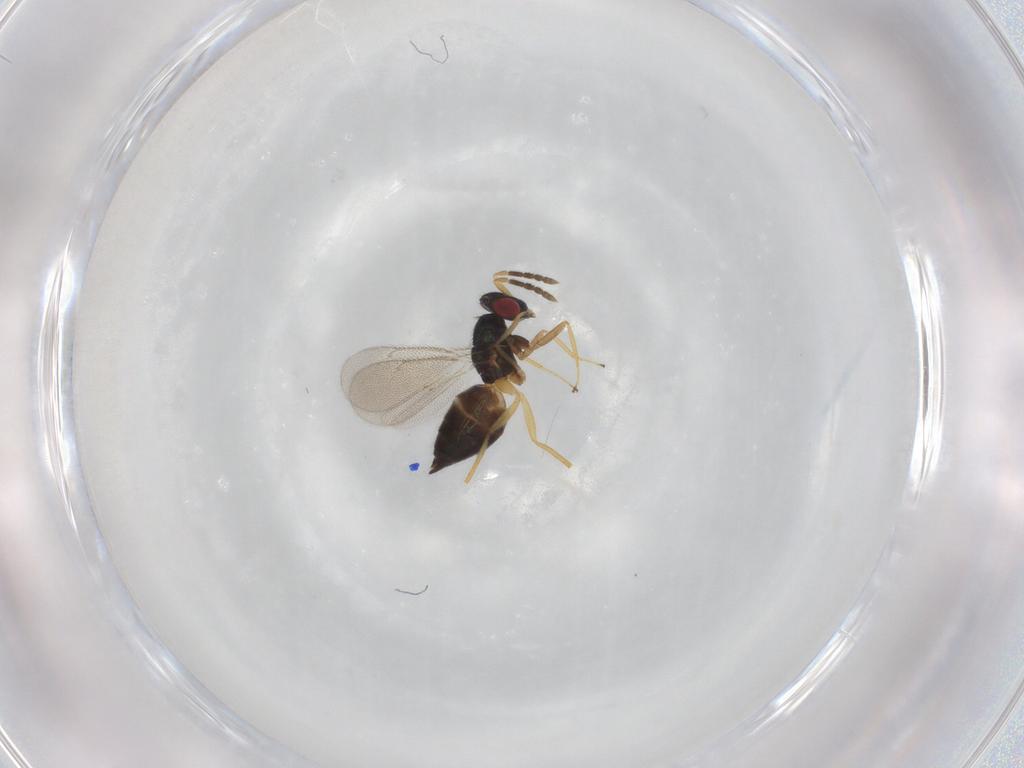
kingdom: Animalia
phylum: Arthropoda
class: Insecta
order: Hymenoptera
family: Eulophidae
